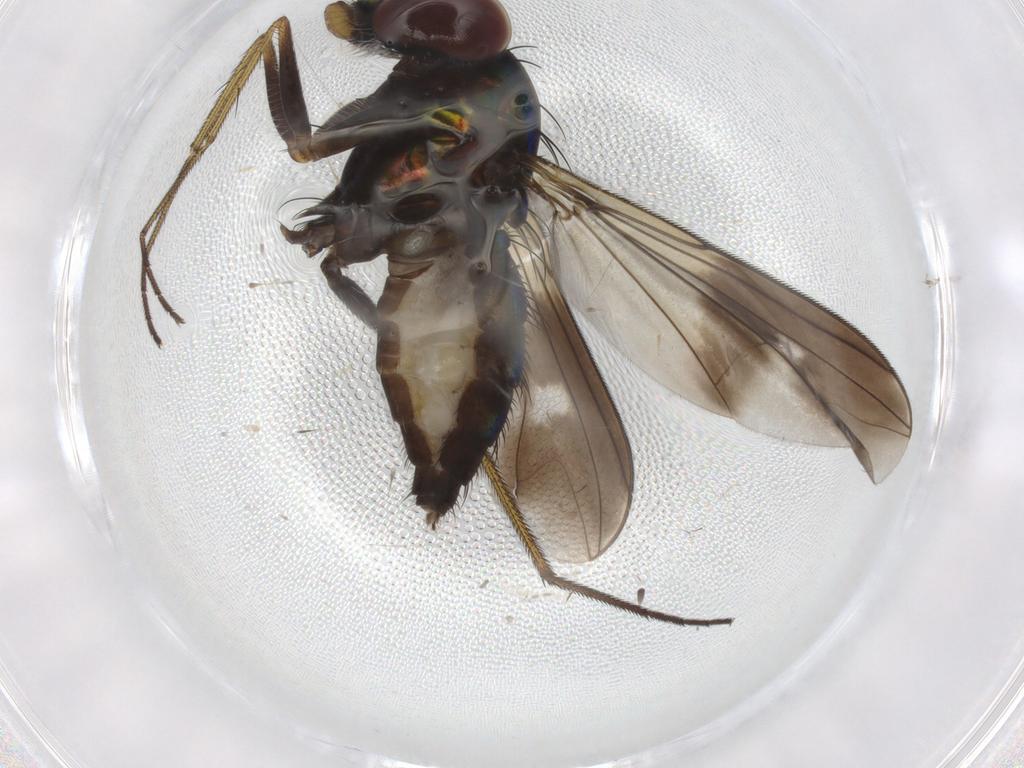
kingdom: Animalia
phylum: Arthropoda
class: Insecta
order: Diptera
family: Dolichopodidae
